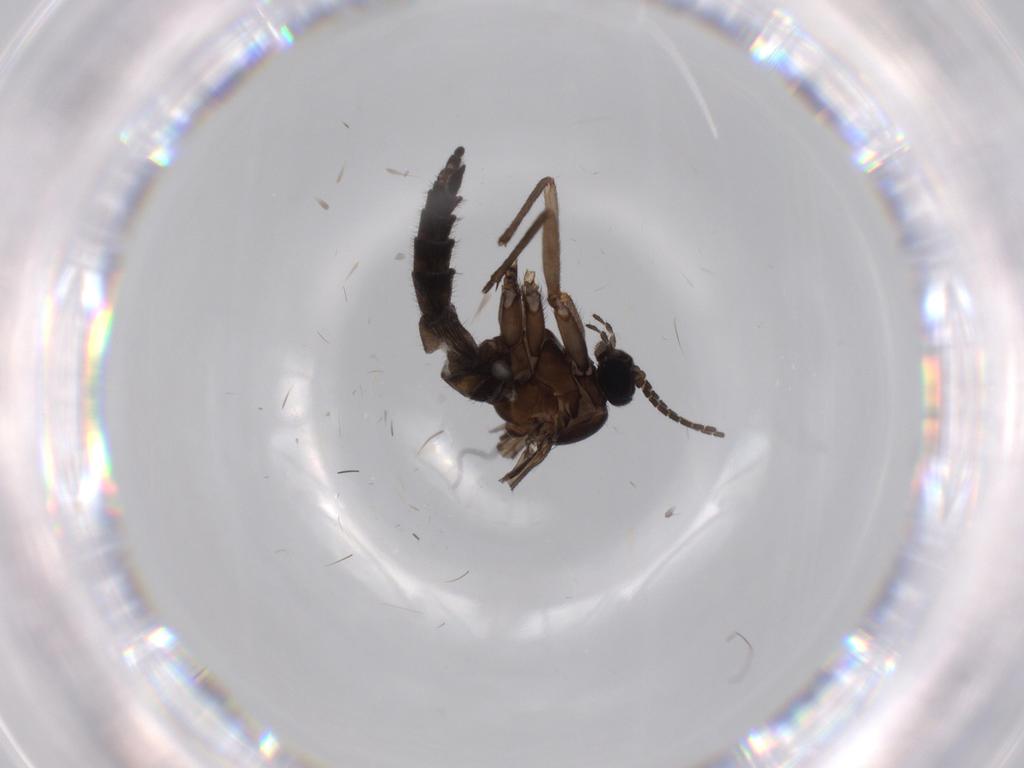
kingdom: Animalia
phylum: Arthropoda
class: Insecta
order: Diptera
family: Sciaridae
